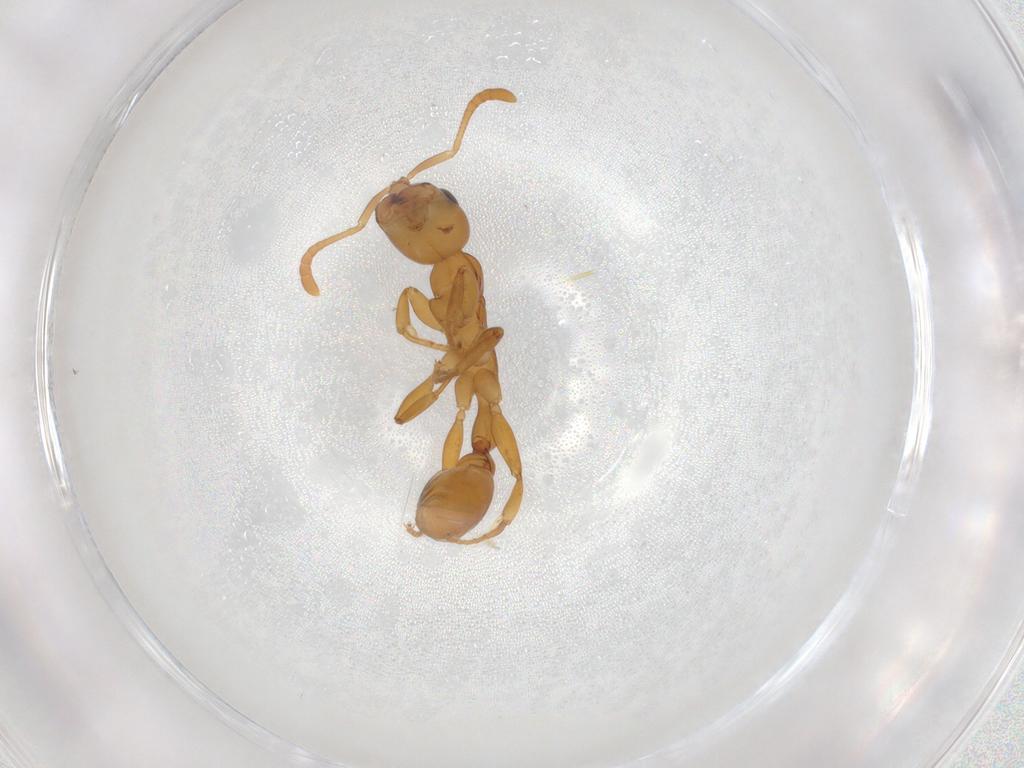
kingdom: Animalia
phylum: Arthropoda
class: Insecta
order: Hymenoptera
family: Formicidae
